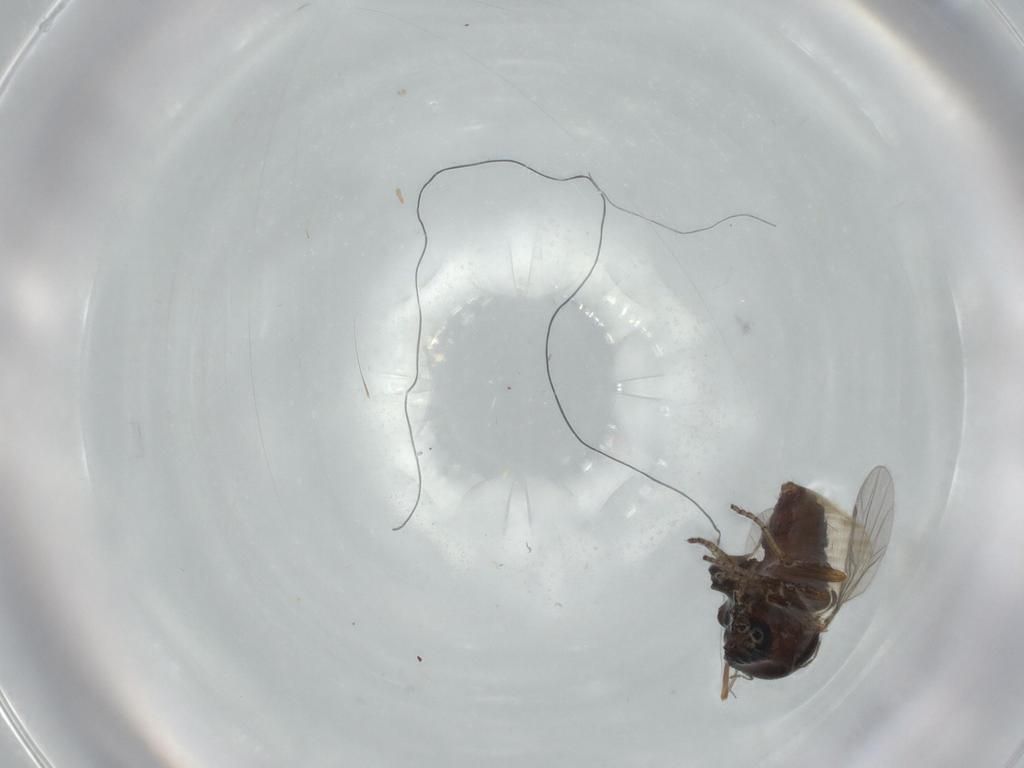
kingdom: Animalia
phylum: Arthropoda
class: Insecta
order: Diptera
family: Ceratopogonidae
